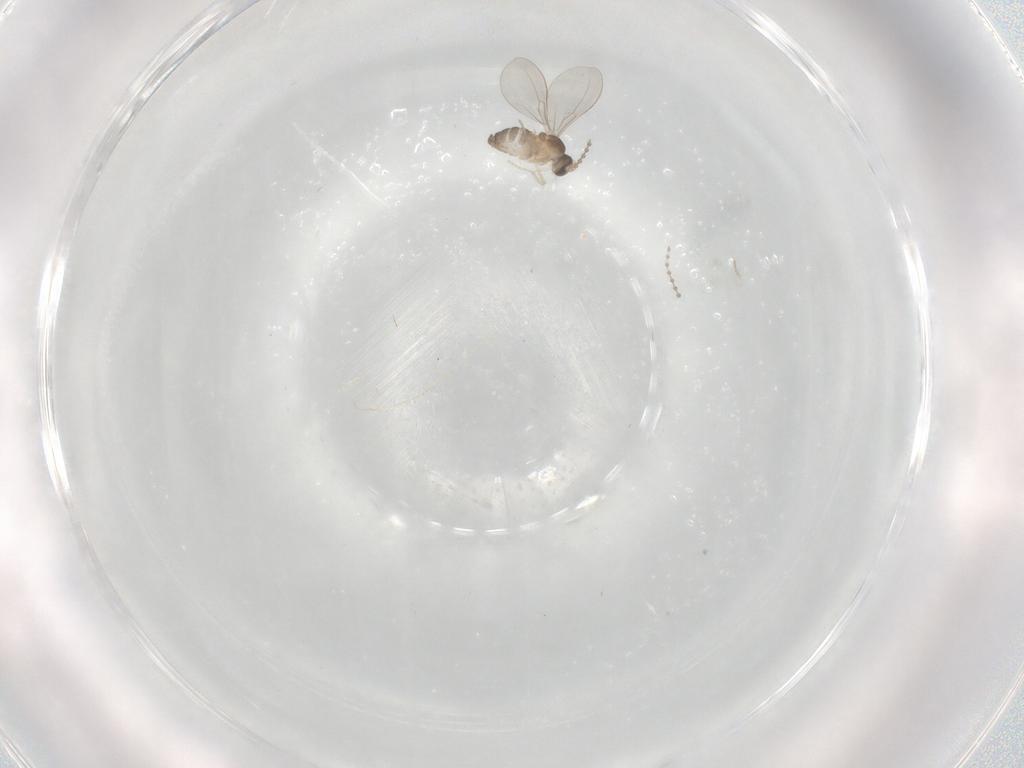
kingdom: Animalia
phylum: Arthropoda
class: Insecta
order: Diptera
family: Cecidomyiidae
